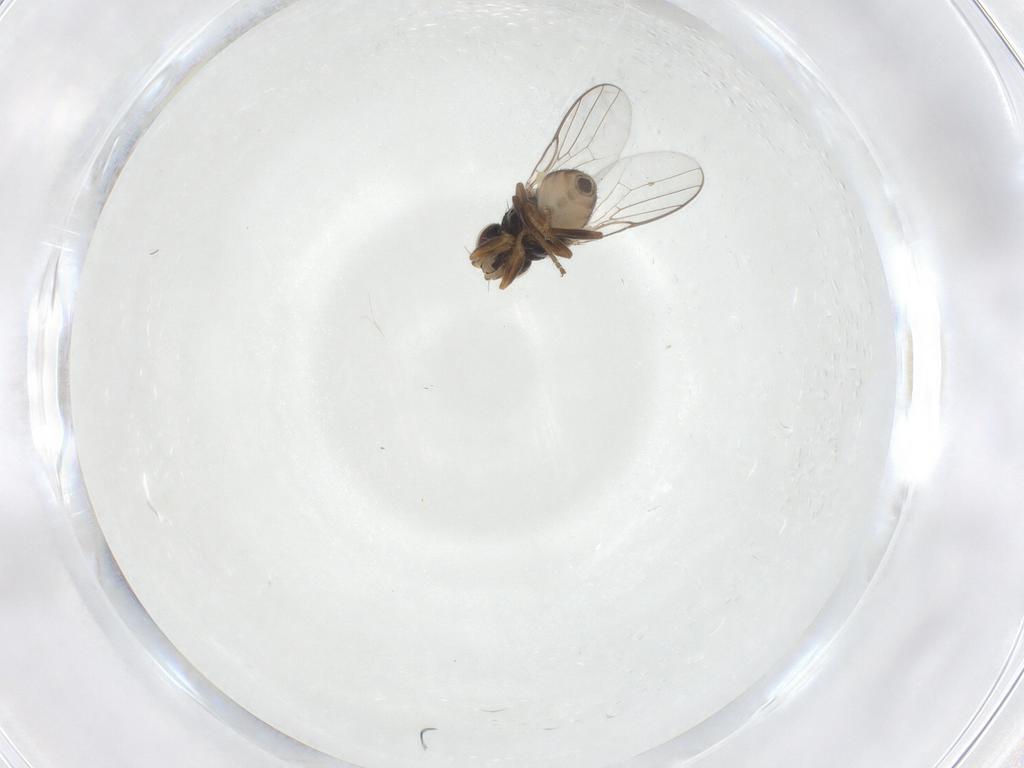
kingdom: Animalia
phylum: Arthropoda
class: Insecta
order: Diptera
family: Chloropidae
